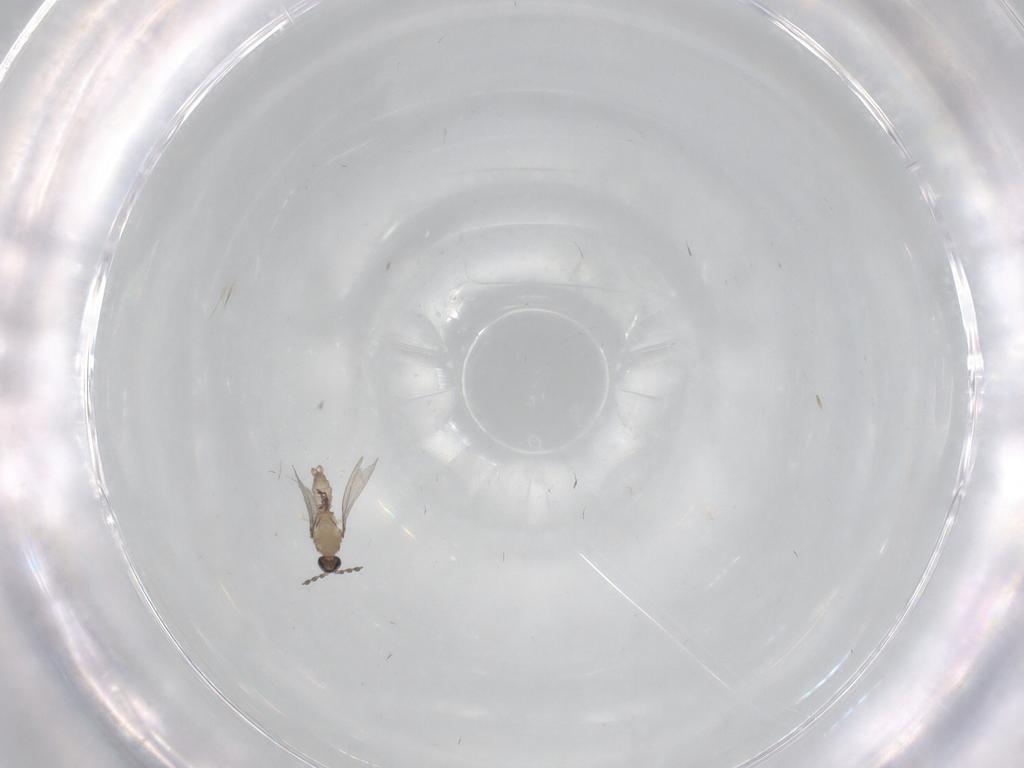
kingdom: Animalia
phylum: Arthropoda
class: Insecta
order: Diptera
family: Cecidomyiidae
